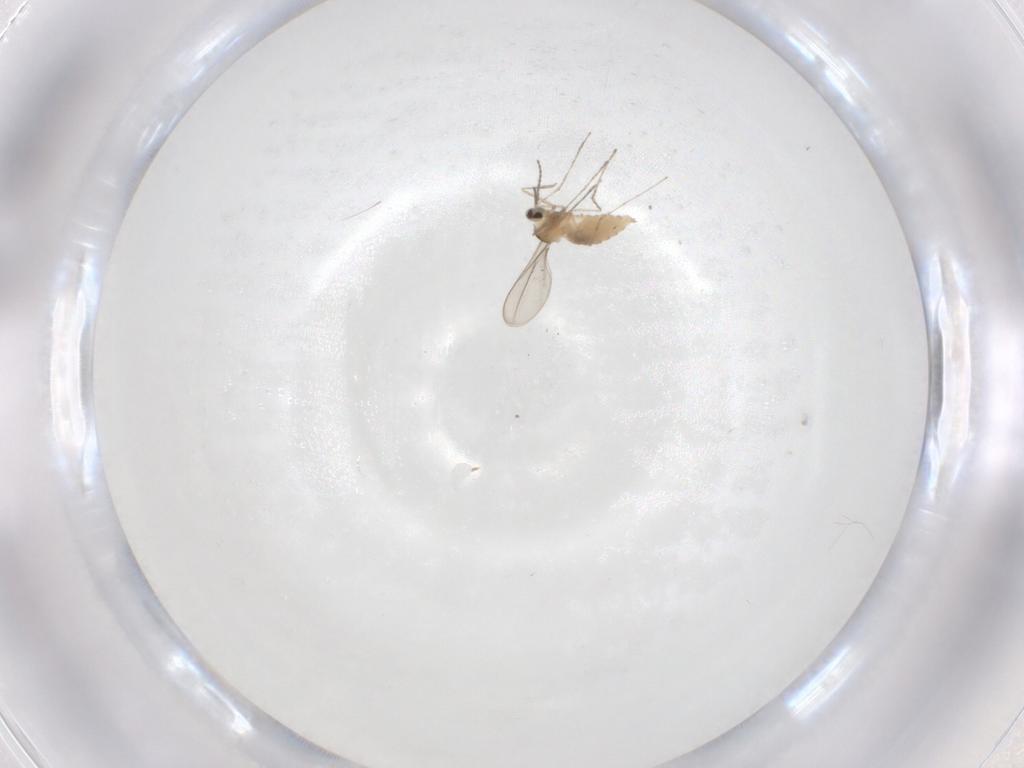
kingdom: Animalia
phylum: Arthropoda
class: Insecta
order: Diptera
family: Cecidomyiidae
